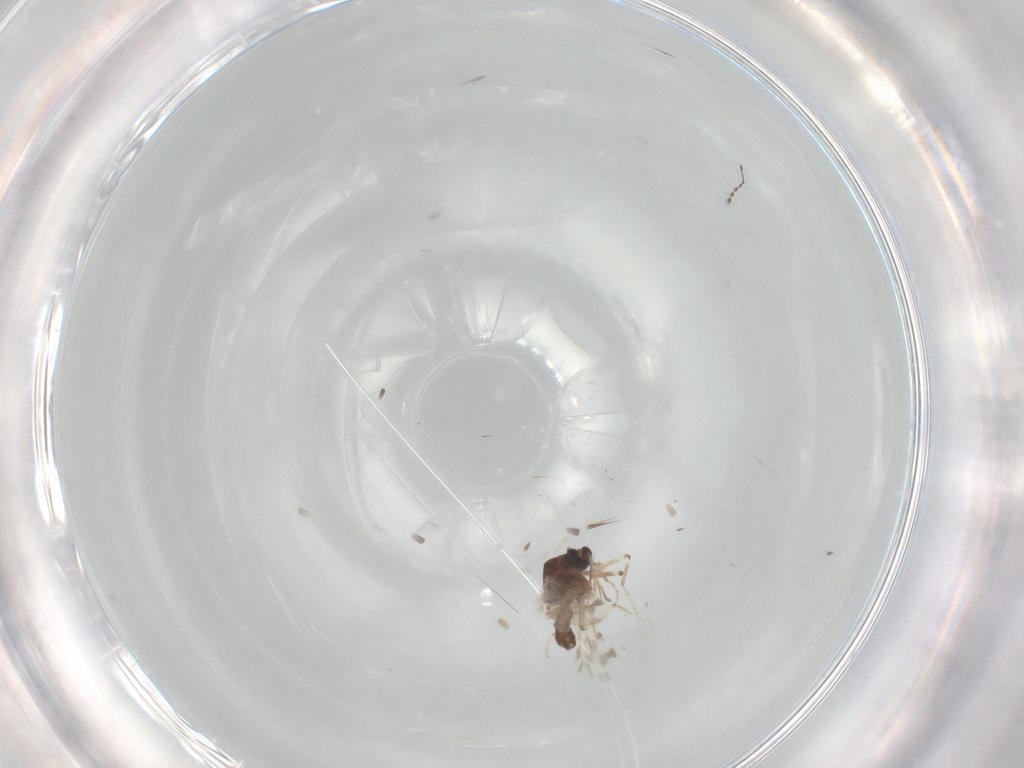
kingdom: Animalia
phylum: Arthropoda
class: Insecta
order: Diptera
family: Ceratopogonidae
